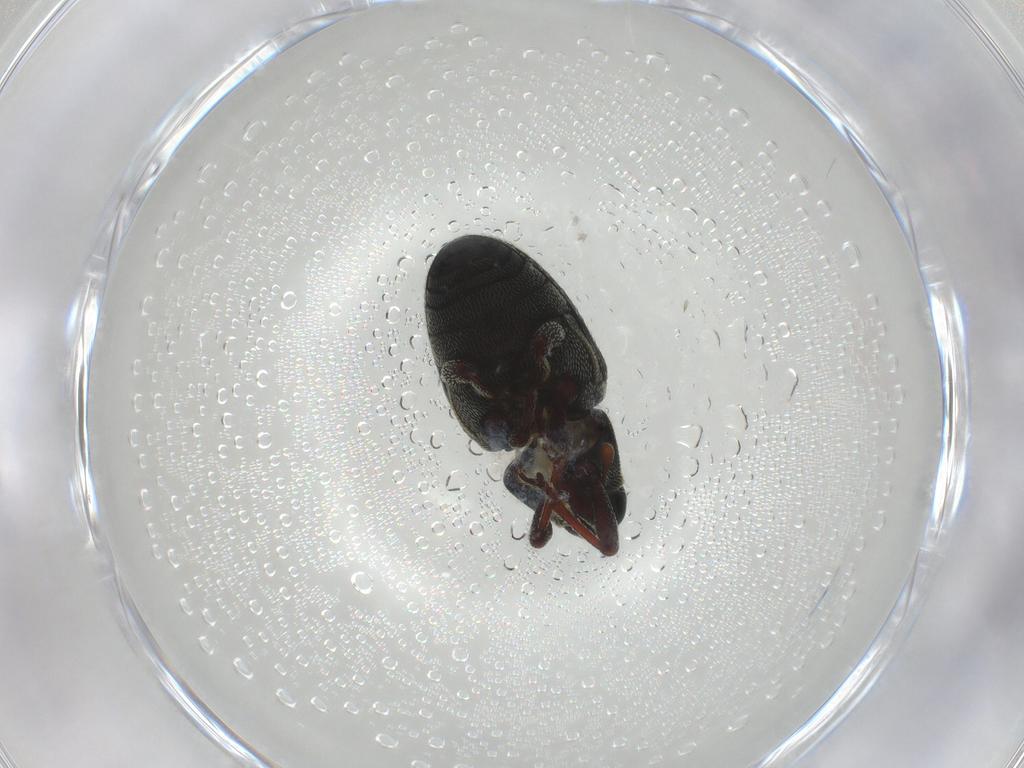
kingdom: Animalia
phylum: Arthropoda
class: Insecta
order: Coleoptera
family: Curculionidae
